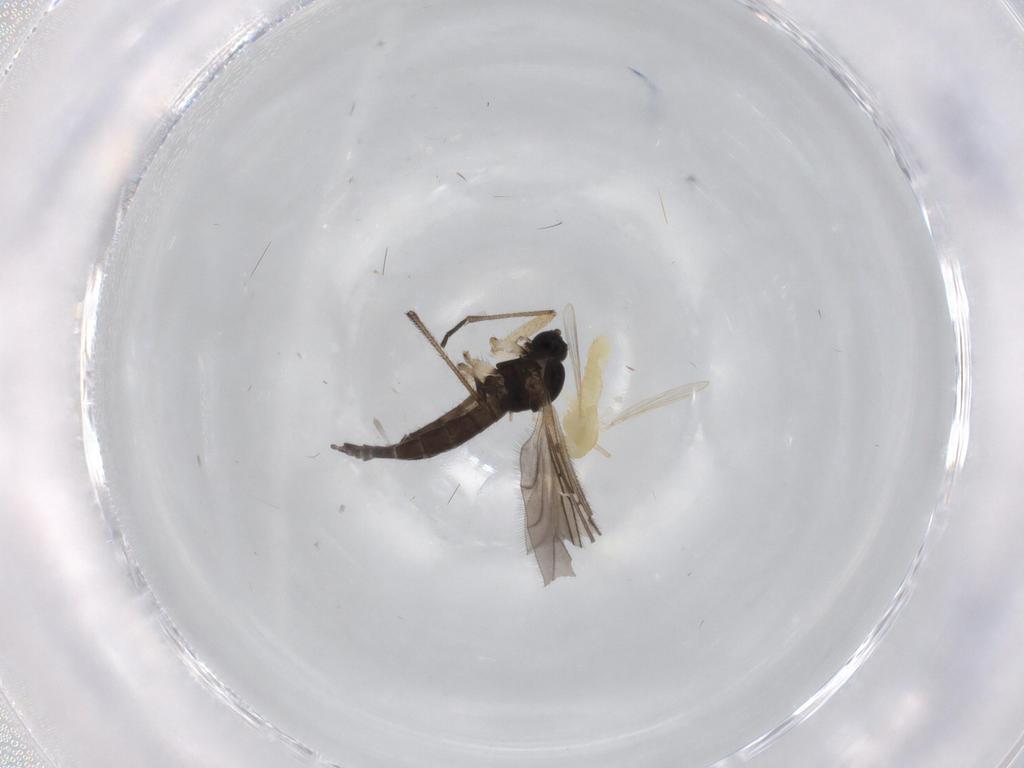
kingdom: Animalia
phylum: Arthropoda
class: Insecta
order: Diptera
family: Sciaridae
